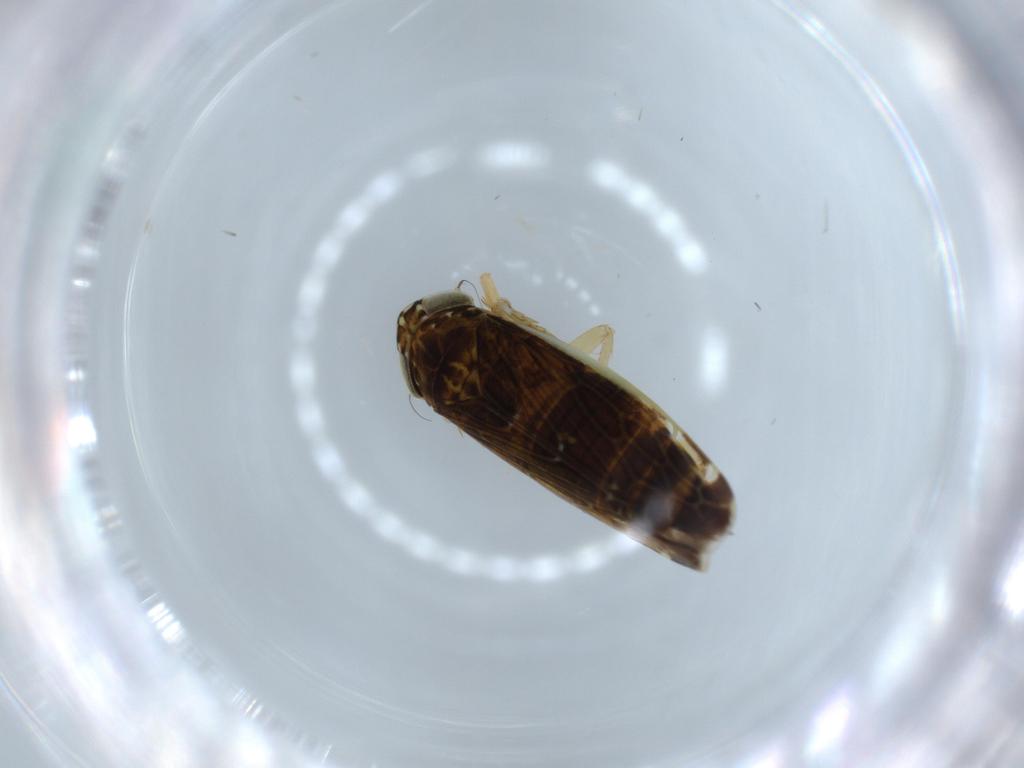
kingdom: Animalia
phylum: Arthropoda
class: Insecta
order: Hemiptera
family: Cicadellidae
